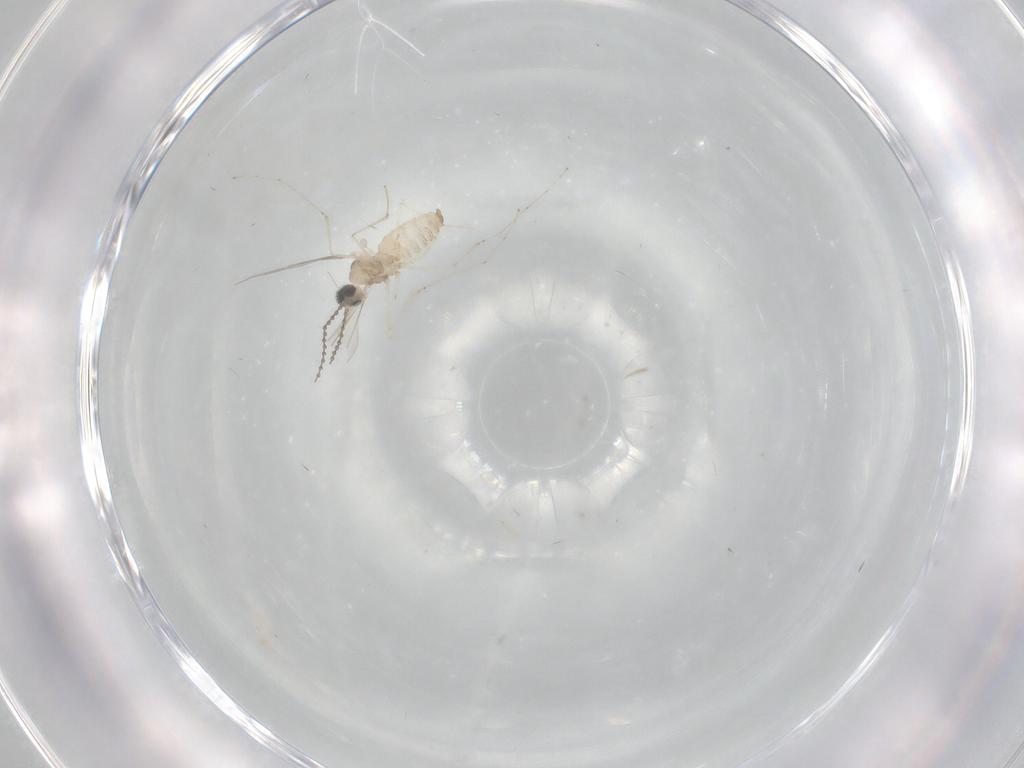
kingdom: Animalia
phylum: Arthropoda
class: Insecta
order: Diptera
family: Cecidomyiidae
